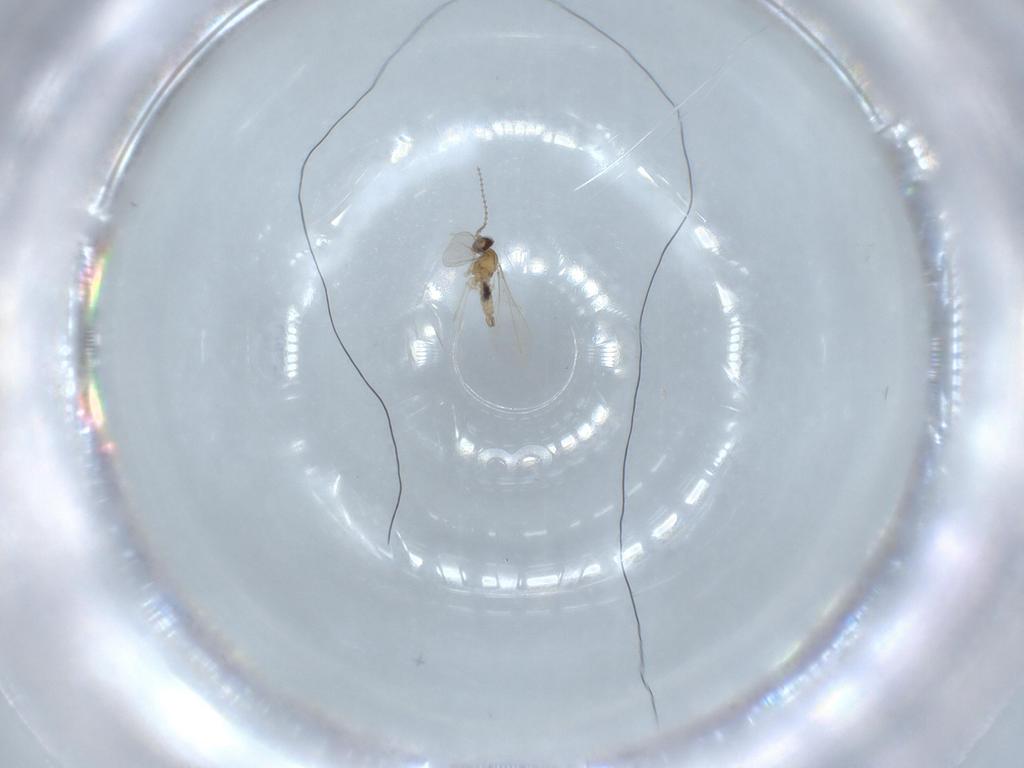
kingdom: Animalia
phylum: Arthropoda
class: Insecta
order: Diptera
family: Cecidomyiidae
